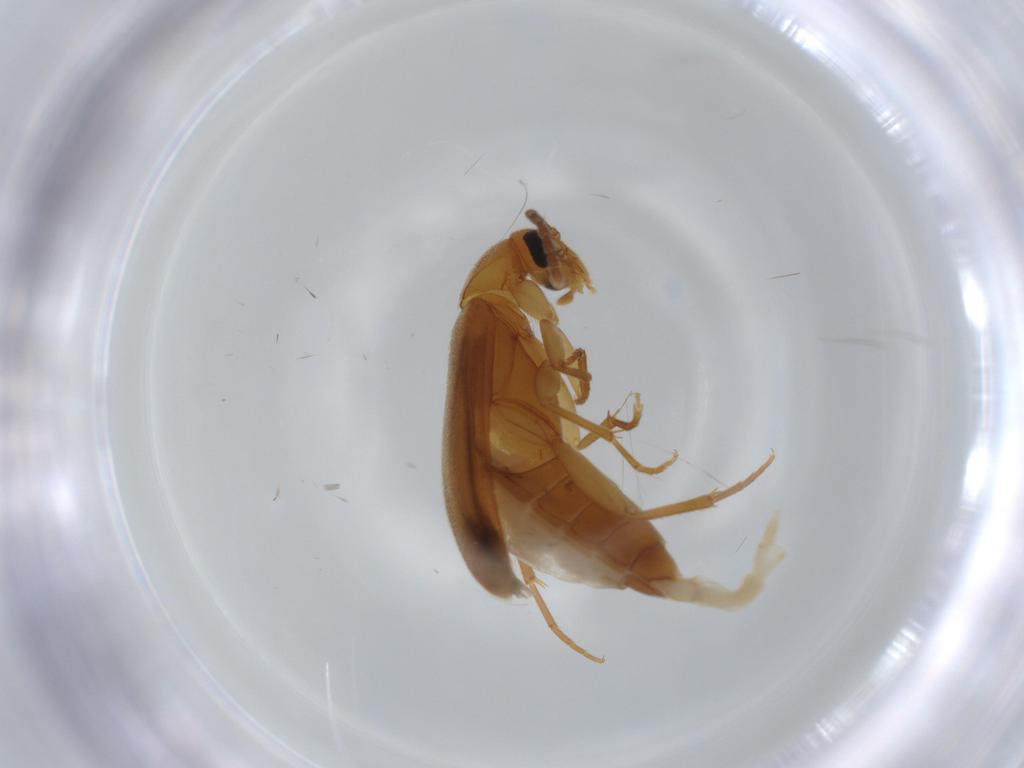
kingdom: Animalia
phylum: Arthropoda
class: Insecta
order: Coleoptera
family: Scraptiidae
